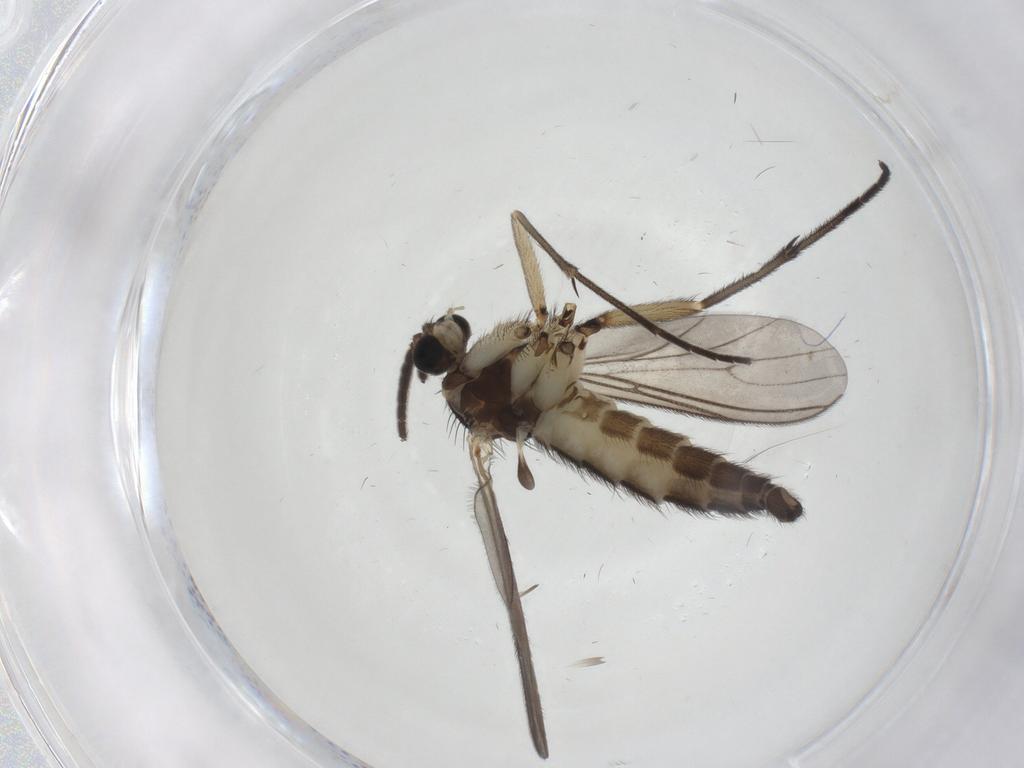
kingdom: Animalia
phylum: Arthropoda
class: Insecta
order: Diptera
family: Sciaridae
